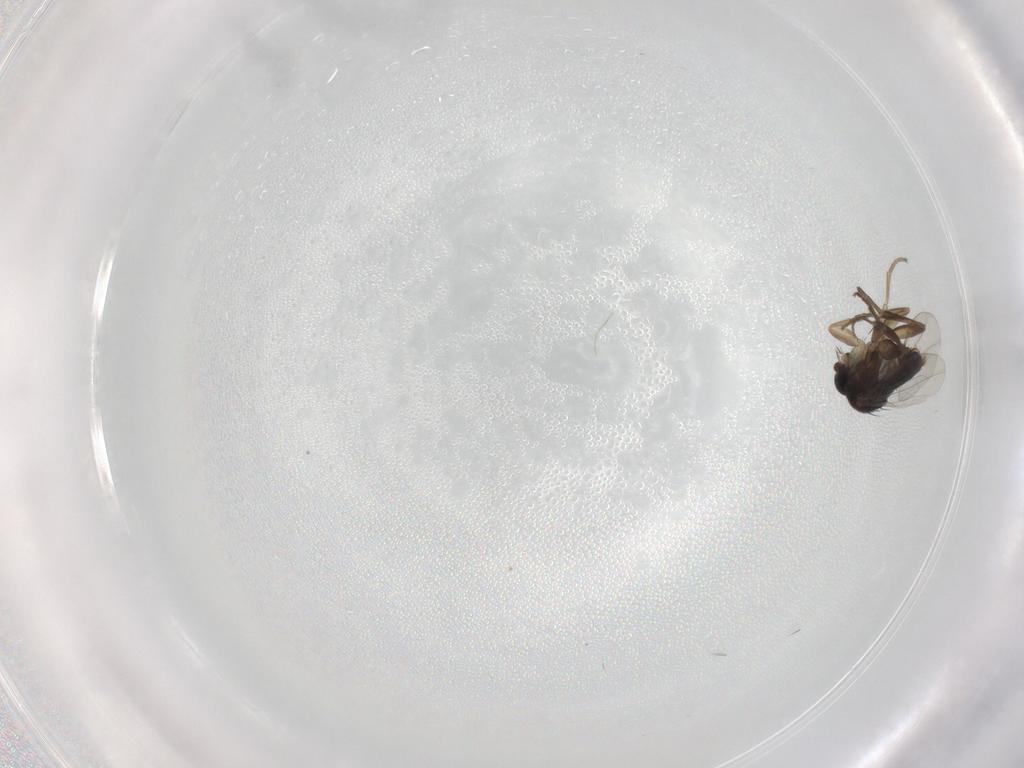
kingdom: Animalia
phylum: Arthropoda
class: Insecta
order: Diptera
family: Phoridae
